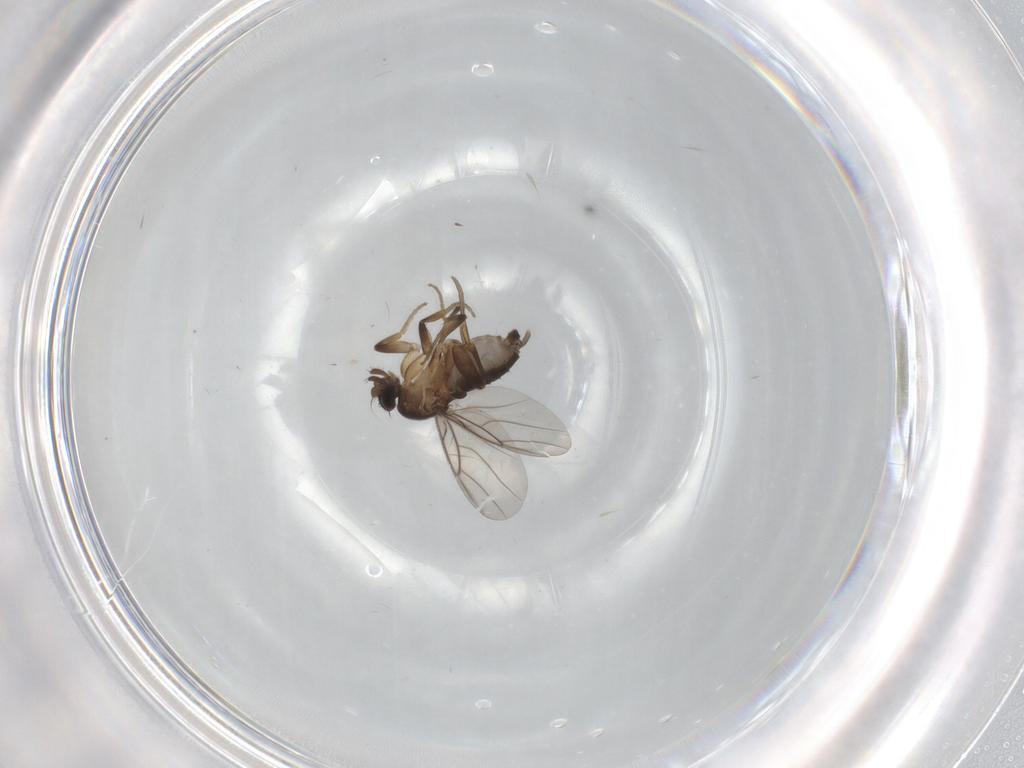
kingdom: Animalia
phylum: Arthropoda
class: Insecta
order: Diptera
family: Phoridae
